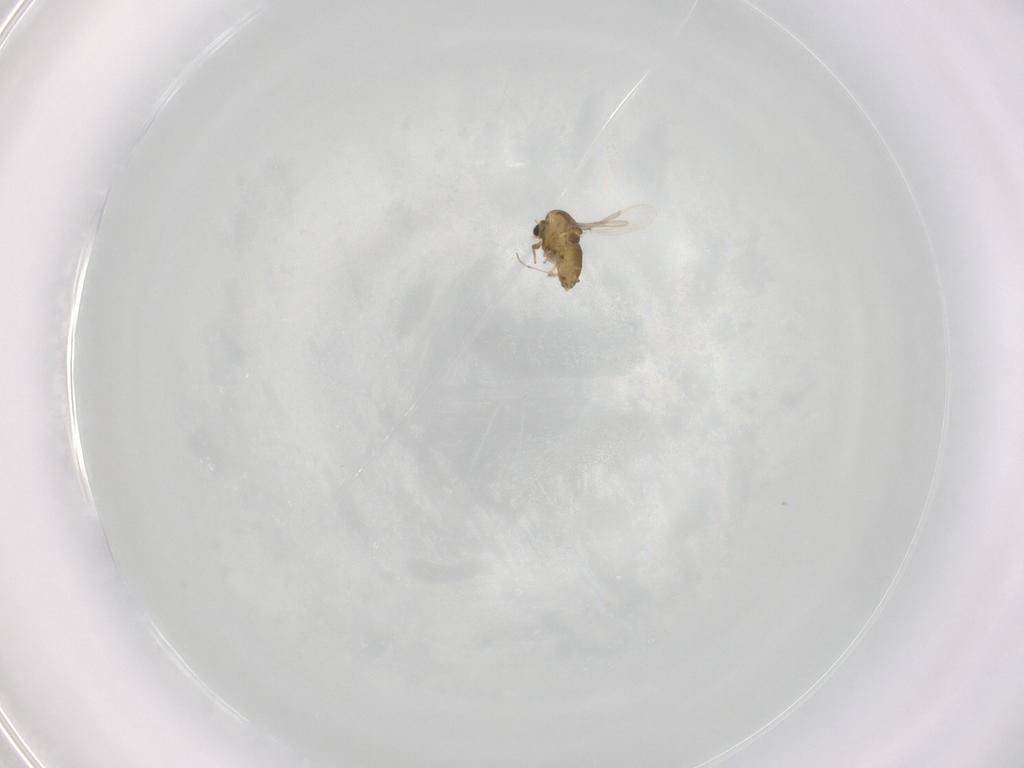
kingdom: Animalia
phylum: Arthropoda
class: Insecta
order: Diptera
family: Chironomidae
